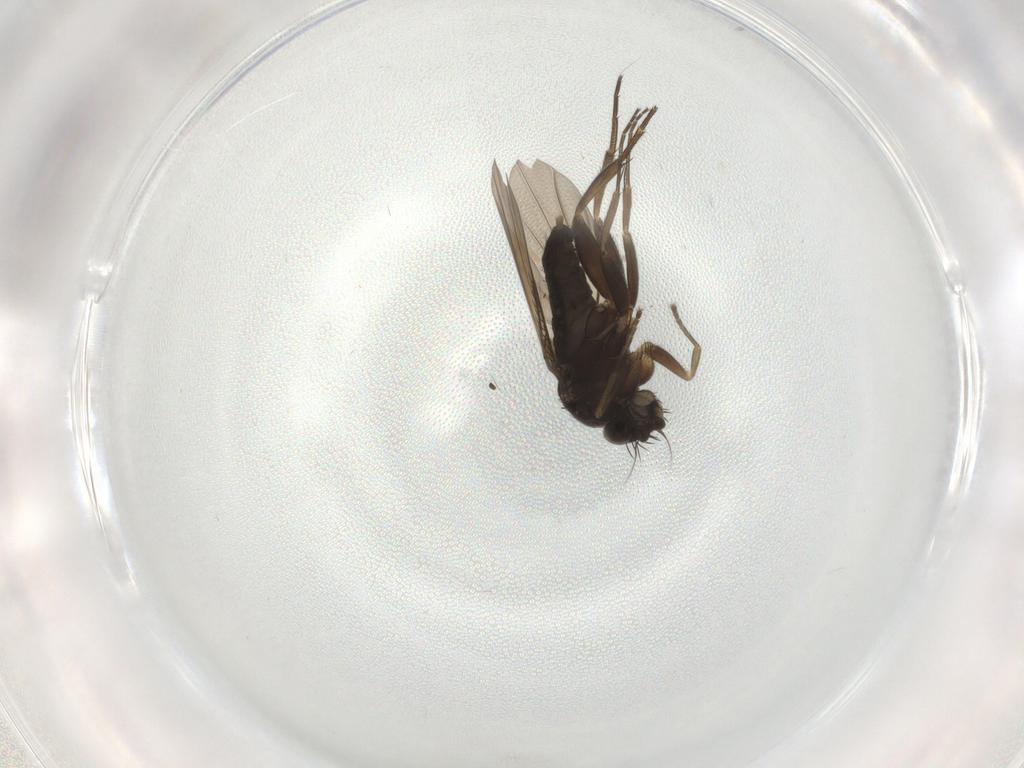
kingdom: Animalia
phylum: Arthropoda
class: Insecta
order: Diptera
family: Phoridae
